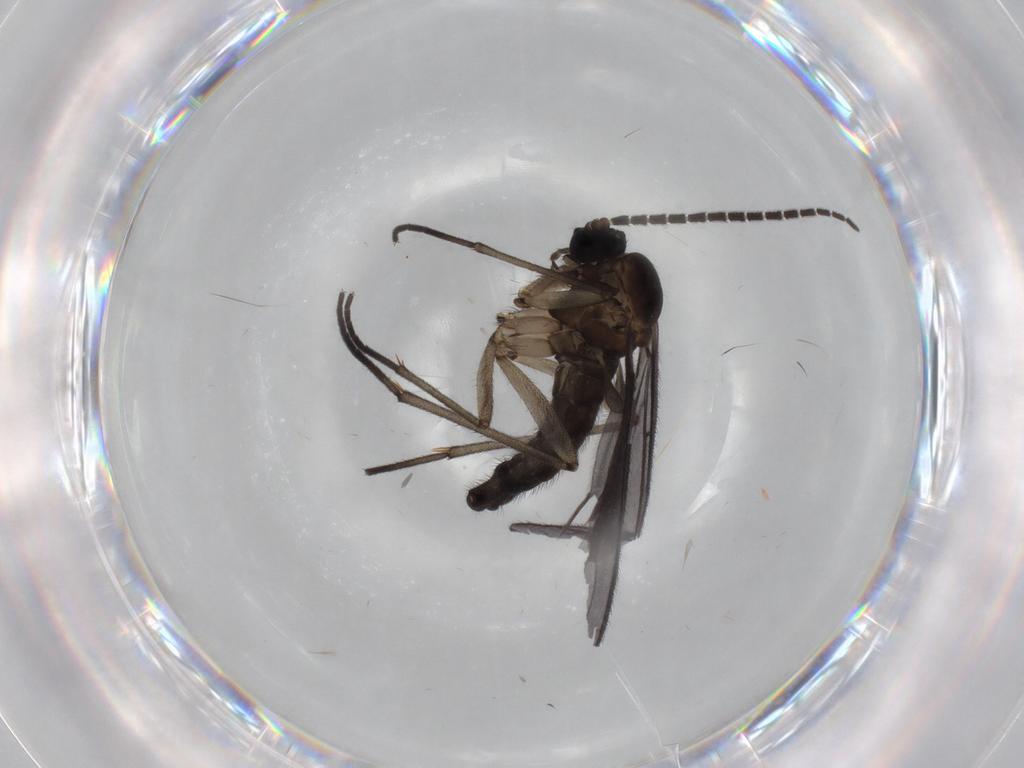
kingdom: Animalia
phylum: Arthropoda
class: Insecta
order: Diptera
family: Sciaridae
